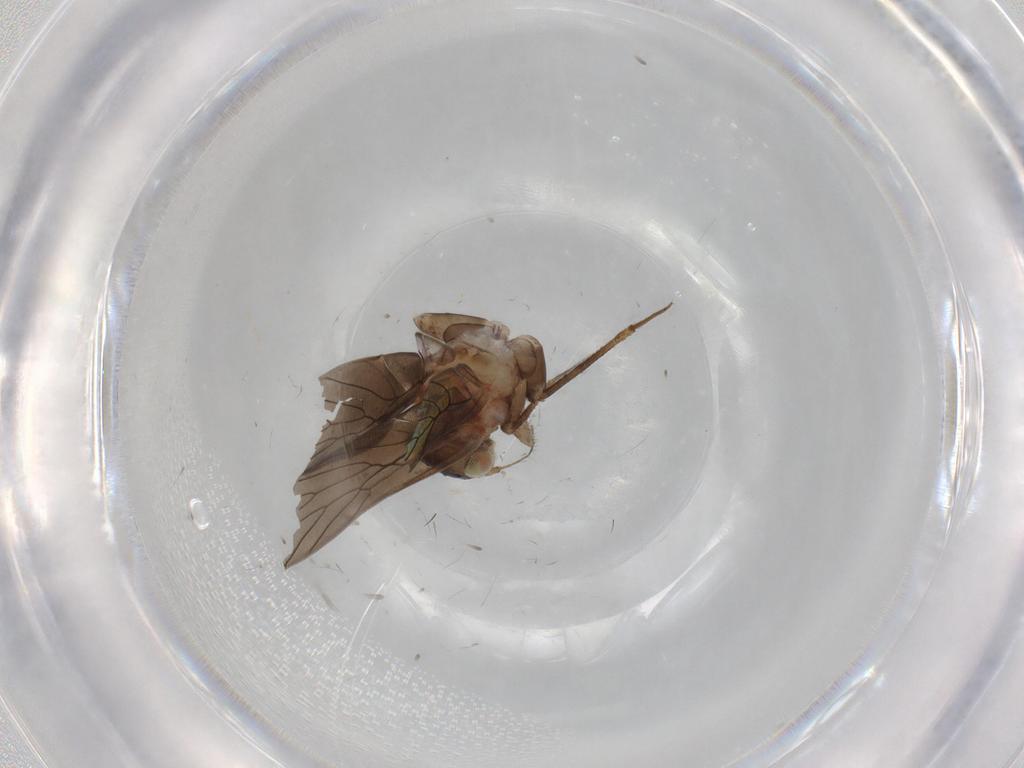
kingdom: Animalia
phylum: Arthropoda
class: Insecta
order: Psocodea
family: Lepidopsocidae
